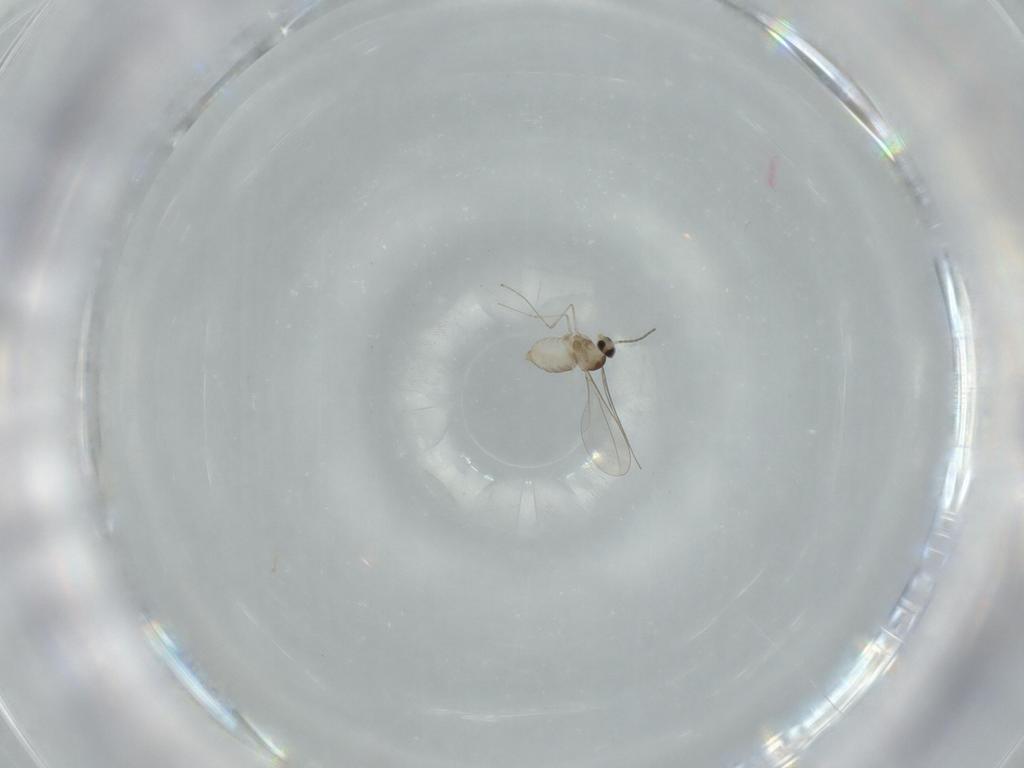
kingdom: Animalia
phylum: Arthropoda
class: Insecta
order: Diptera
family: Cecidomyiidae
